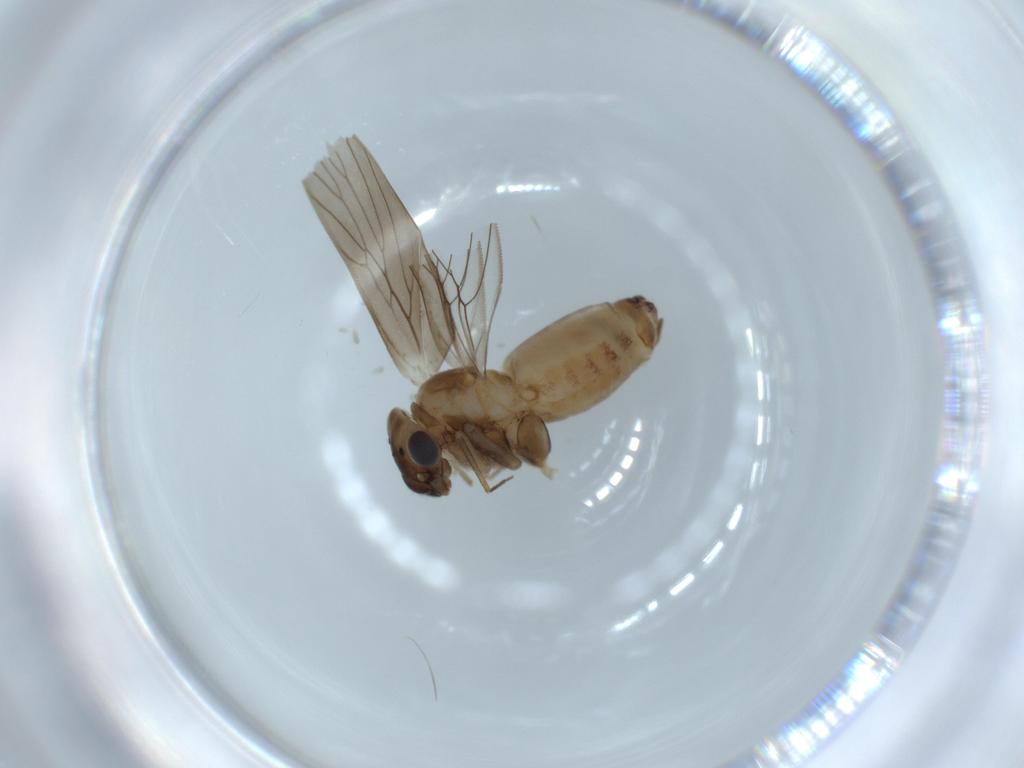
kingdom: Animalia
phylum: Arthropoda
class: Insecta
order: Psocodea
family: Lepidopsocidae
